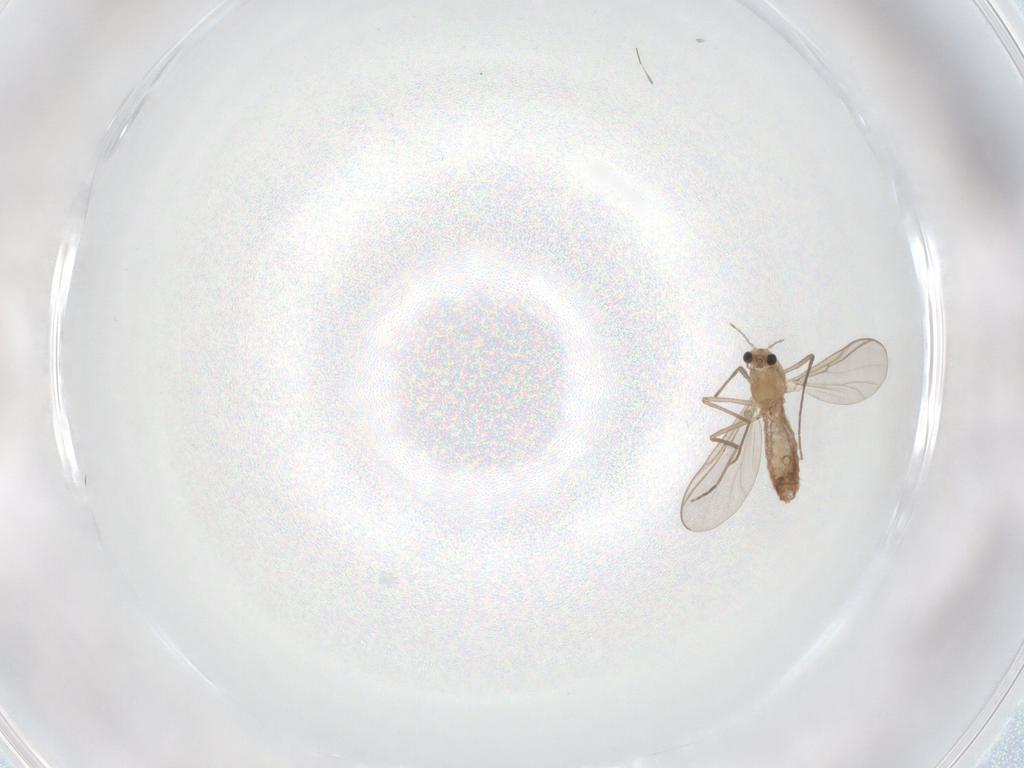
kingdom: Animalia
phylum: Arthropoda
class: Insecta
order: Diptera
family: Chironomidae
